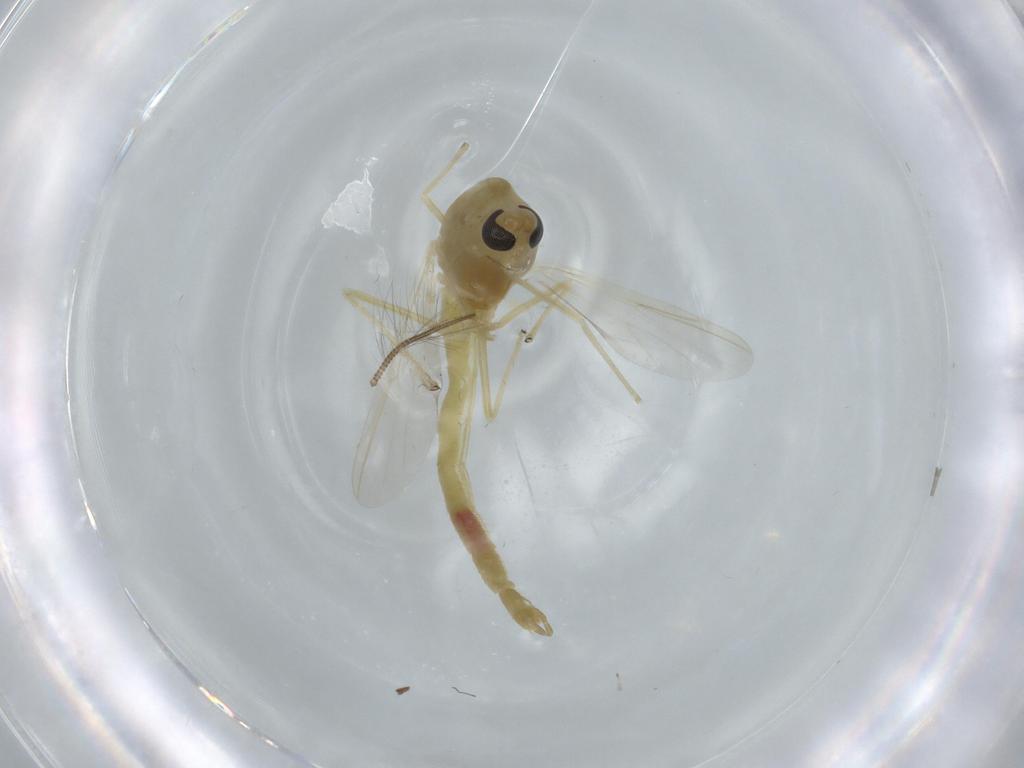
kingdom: Animalia
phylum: Arthropoda
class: Insecta
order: Diptera
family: Chironomidae
